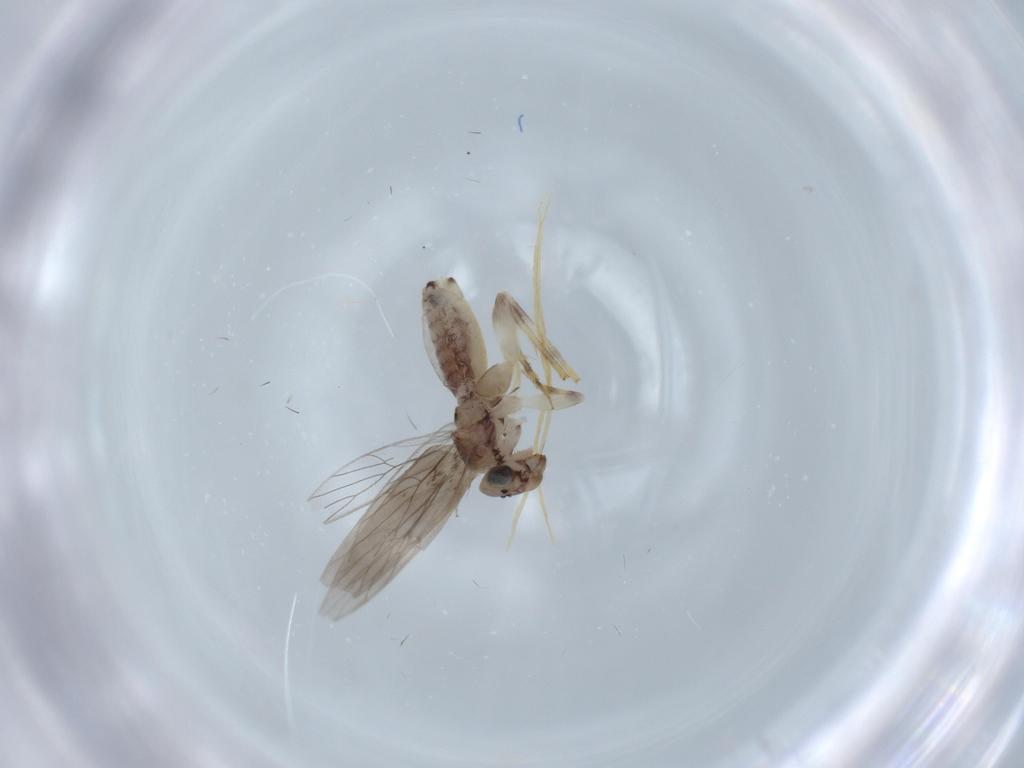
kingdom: Animalia
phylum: Arthropoda
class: Insecta
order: Psocodea
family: Lepidopsocidae
